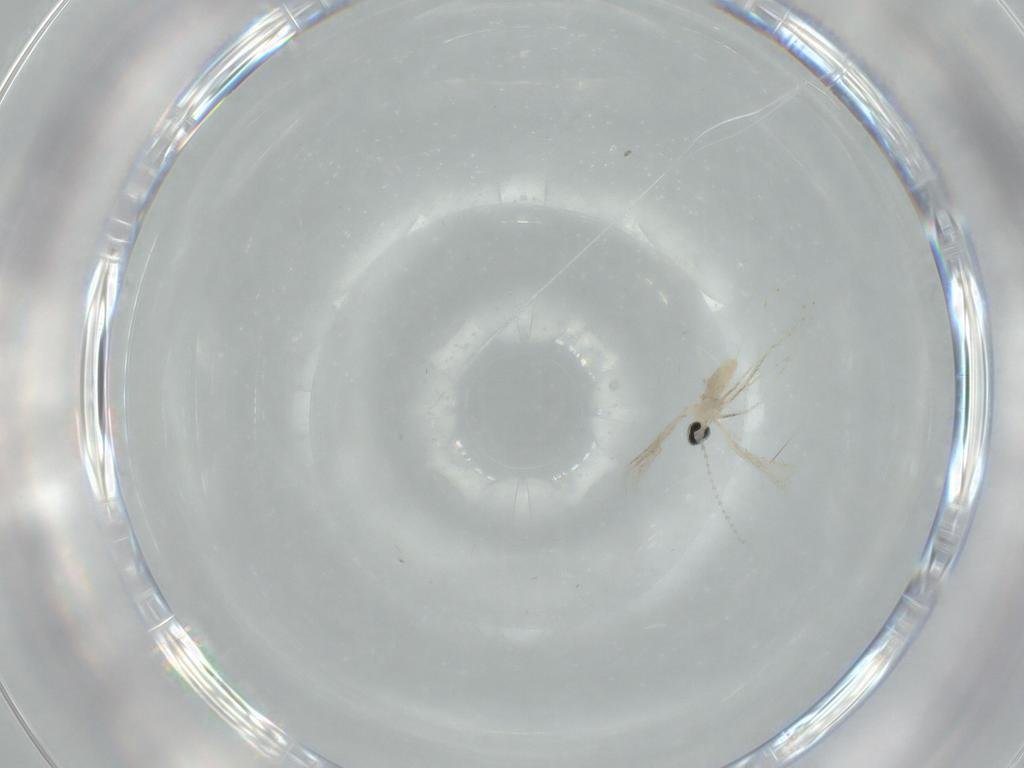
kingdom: Animalia
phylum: Arthropoda
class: Insecta
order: Diptera
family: Cecidomyiidae
